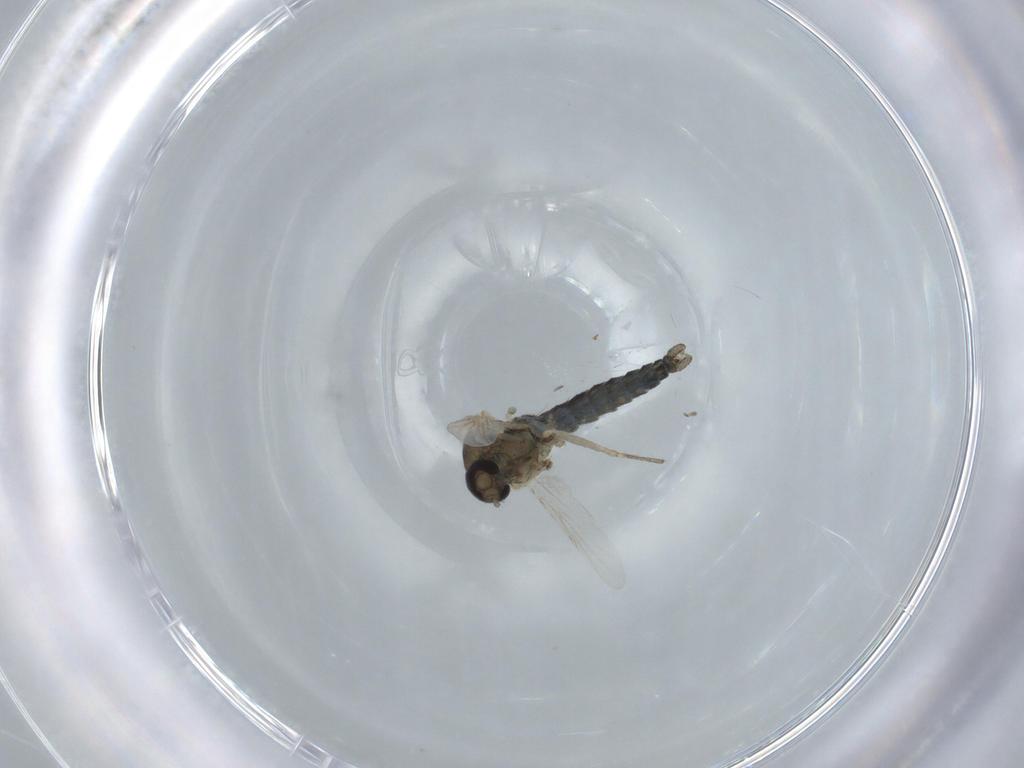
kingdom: Animalia
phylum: Arthropoda
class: Insecta
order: Diptera
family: Ceratopogonidae
